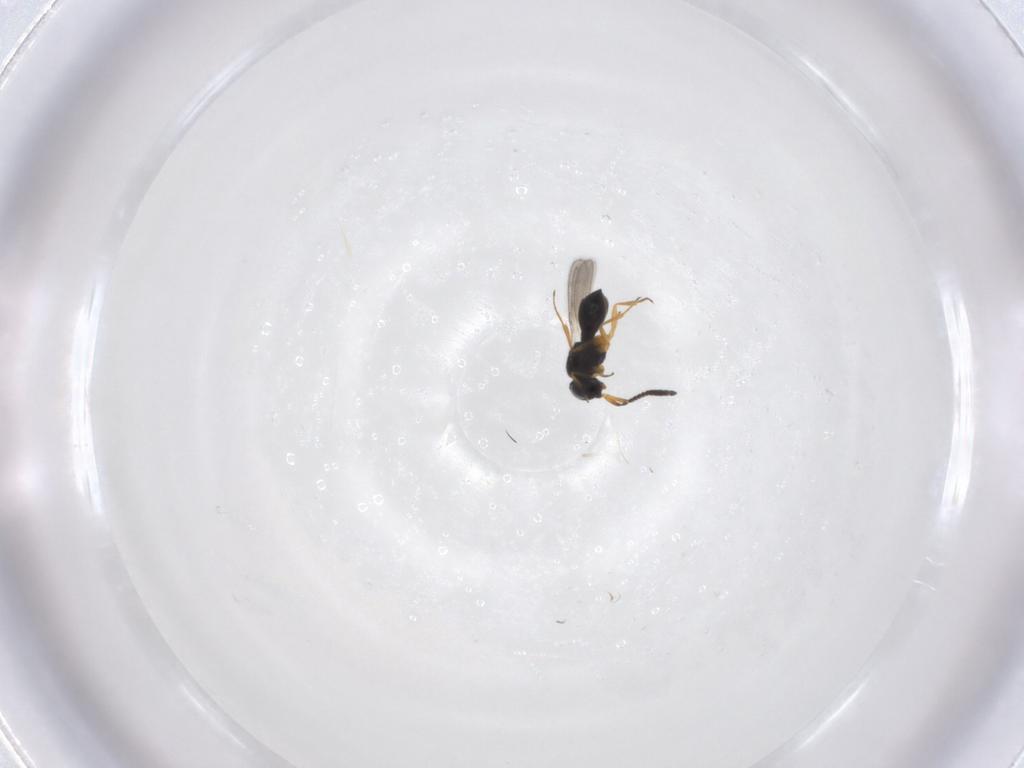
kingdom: Animalia
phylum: Arthropoda
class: Insecta
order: Hymenoptera
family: Scelionidae
